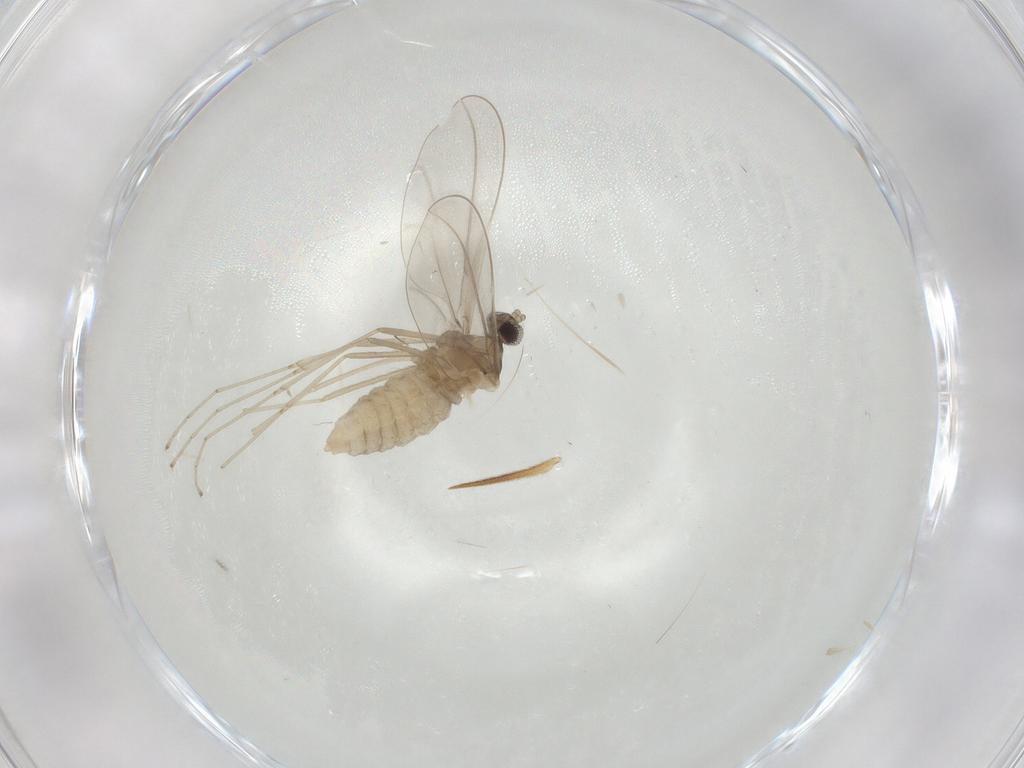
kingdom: Animalia
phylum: Arthropoda
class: Insecta
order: Diptera
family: Cecidomyiidae
